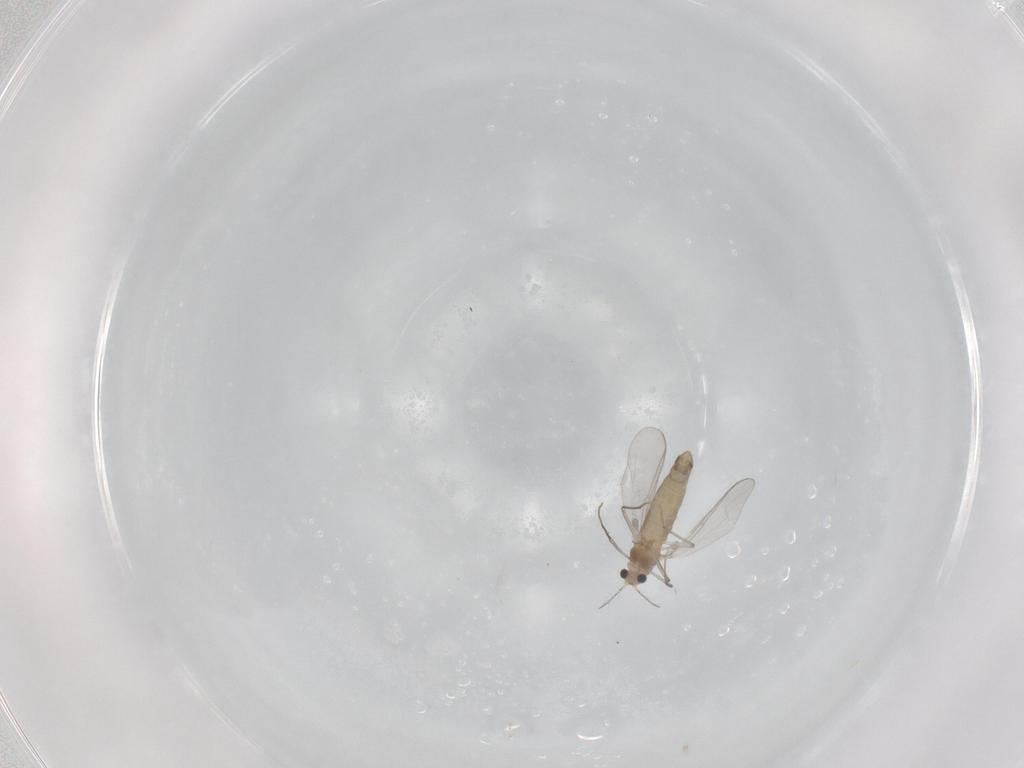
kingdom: Animalia
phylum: Arthropoda
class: Insecta
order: Diptera
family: Chironomidae
